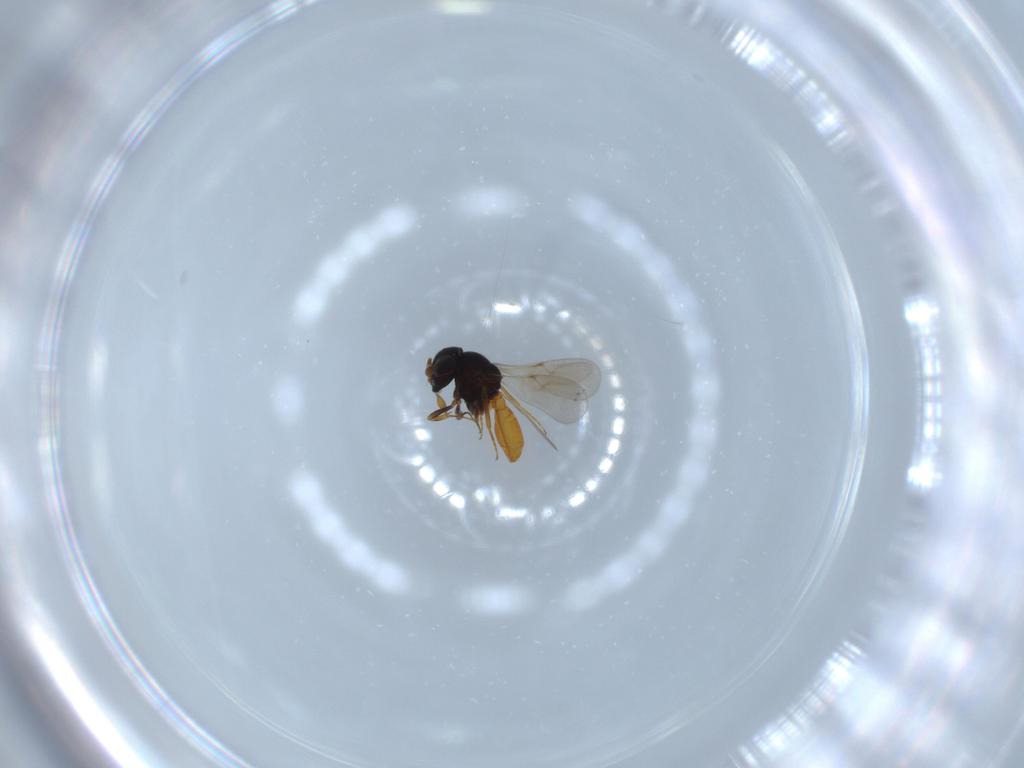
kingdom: Animalia
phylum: Arthropoda
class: Insecta
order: Hymenoptera
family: Scelionidae
